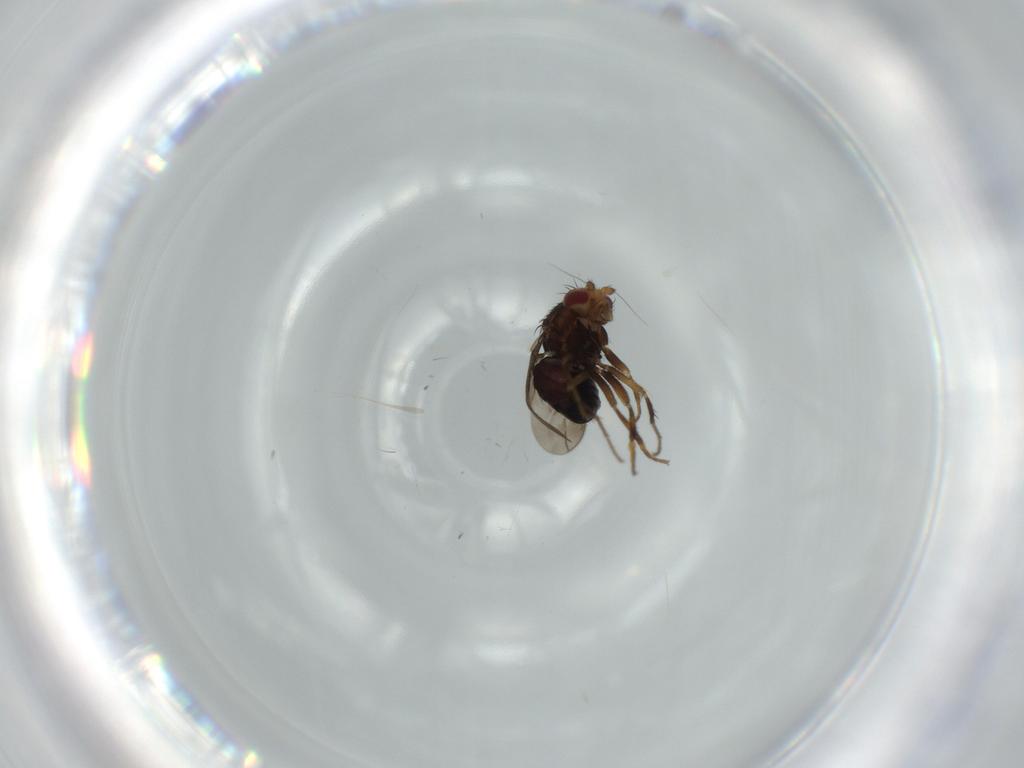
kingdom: Animalia
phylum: Arthropoda
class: Insecta
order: Diptera
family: Sphaeroceridae
